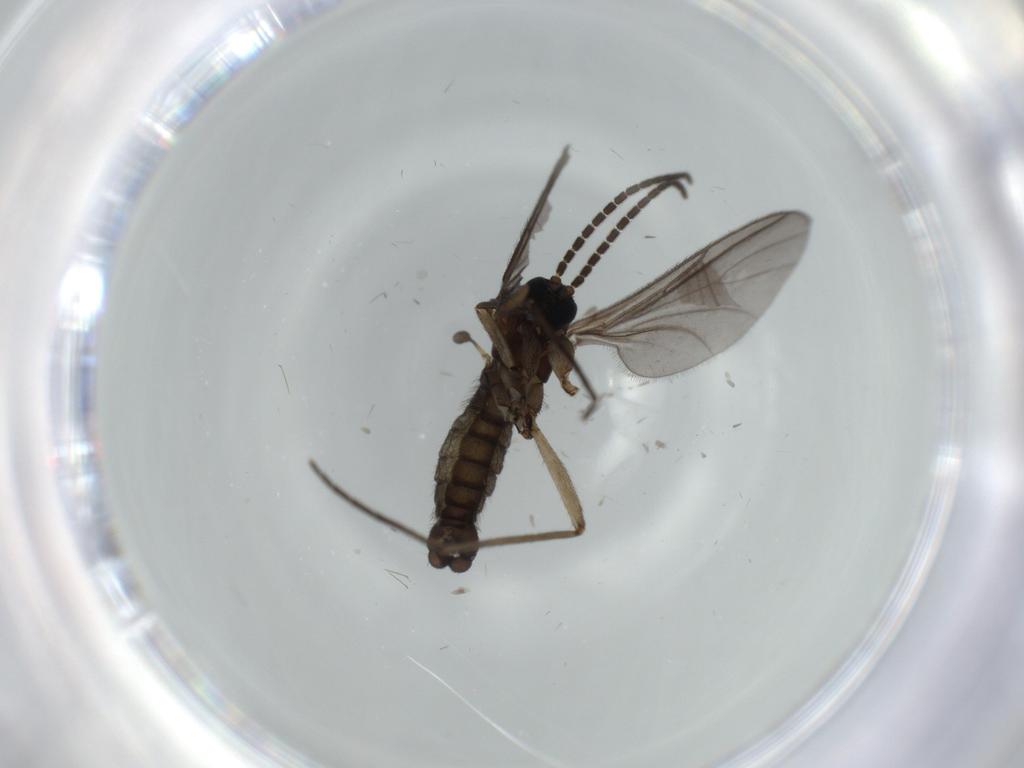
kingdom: Animalia
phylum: Arthropoda
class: Insecta
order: Diptera
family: Sciaridae
